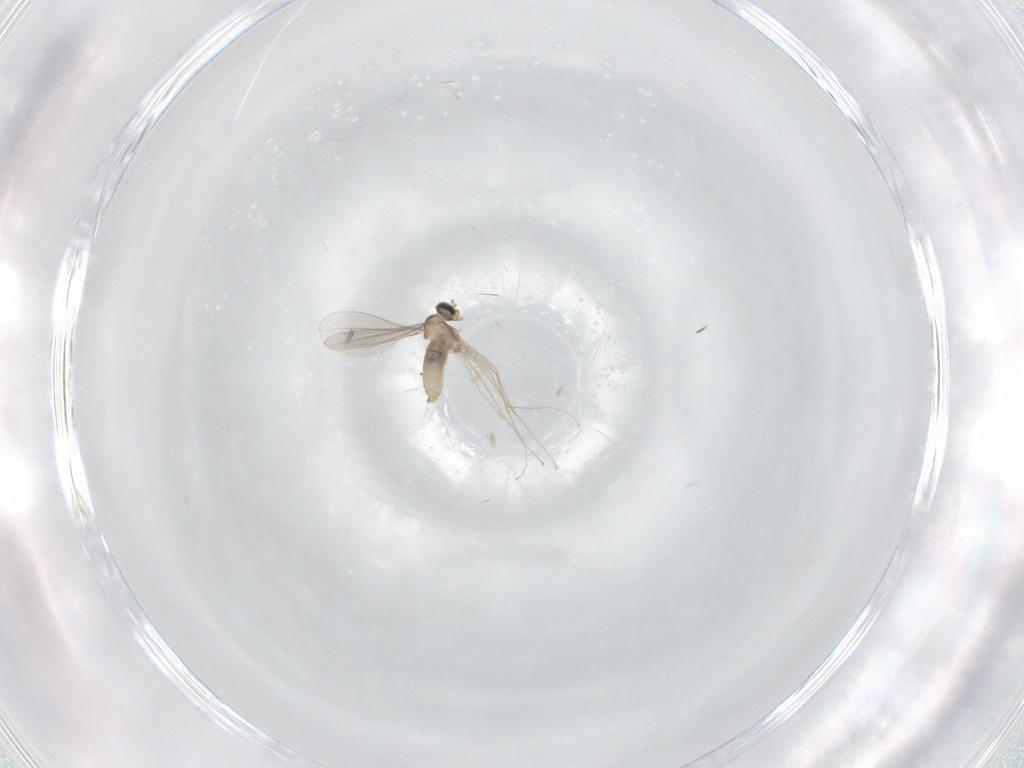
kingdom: Animalia
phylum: Arthropoda
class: Insecta
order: Diptera
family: Cecidomyiidae
